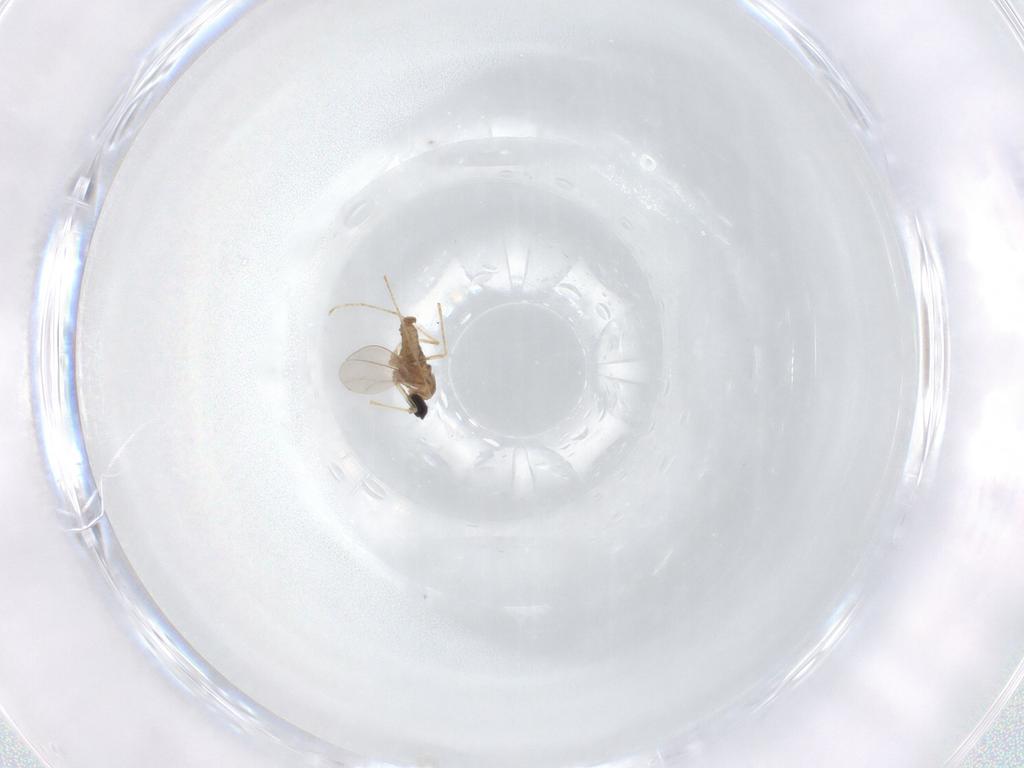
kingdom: Animalia
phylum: Arthropoda
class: Insecta
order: Diptera
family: Cecidomyiidae
